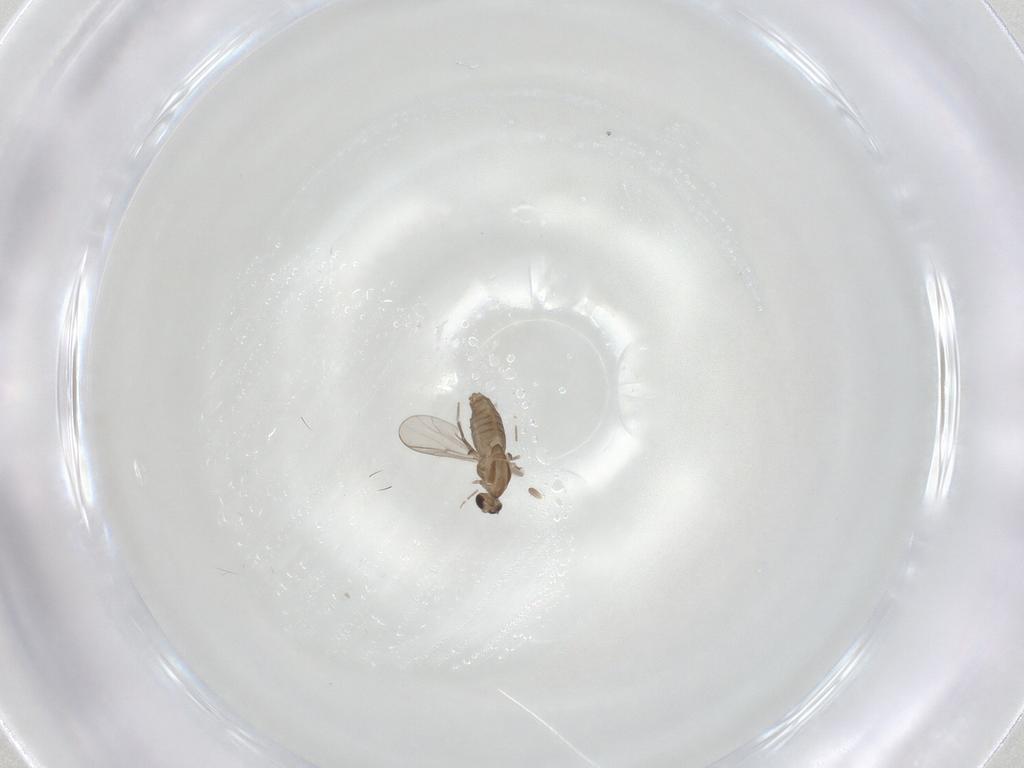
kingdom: Animalia
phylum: Arthropoda
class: Insecta
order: Diptera
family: Chironomidae
